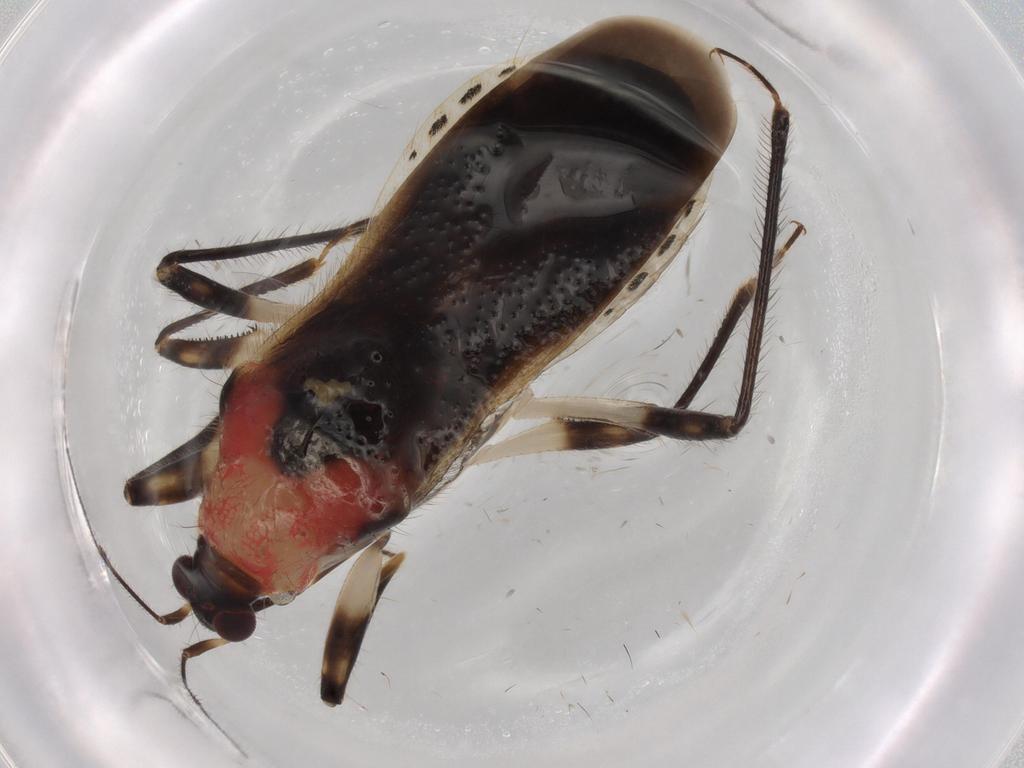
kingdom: Animalia
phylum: Arthropoda
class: Insecta
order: Hemiptera
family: Nabidae
